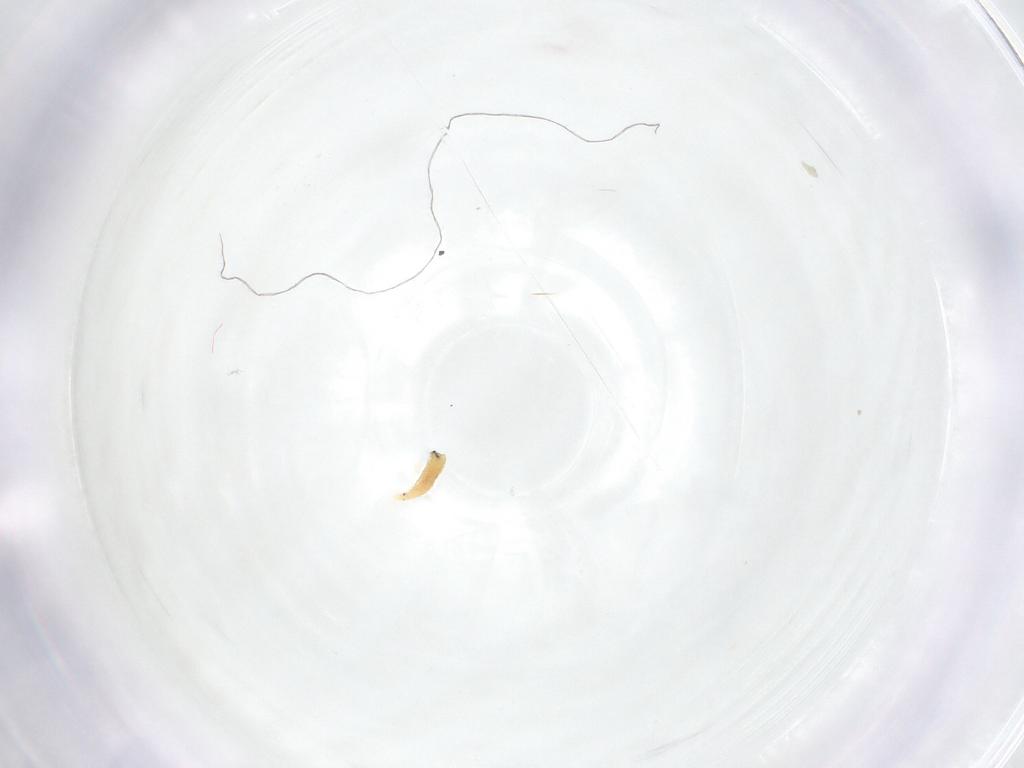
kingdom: Animalia
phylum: Arthropoda
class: Insecta
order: Diptera
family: Fergusoninidae
